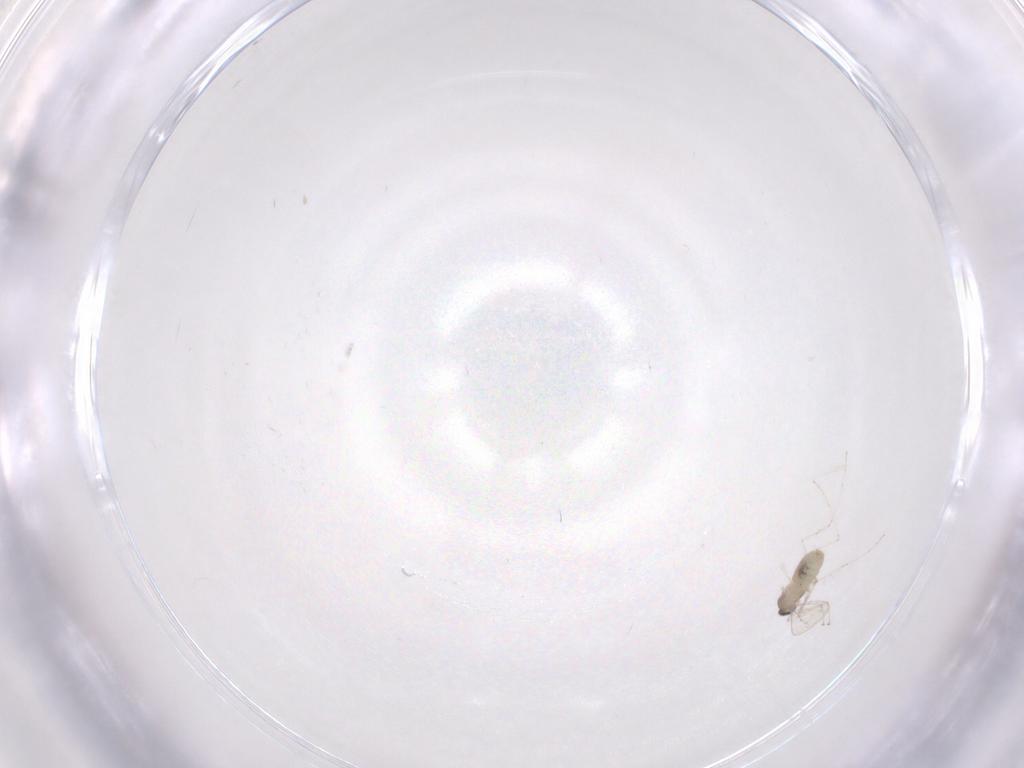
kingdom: Animalia
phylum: Arthropoda
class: Insecta
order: Diptera
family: Cecidomyiidae
